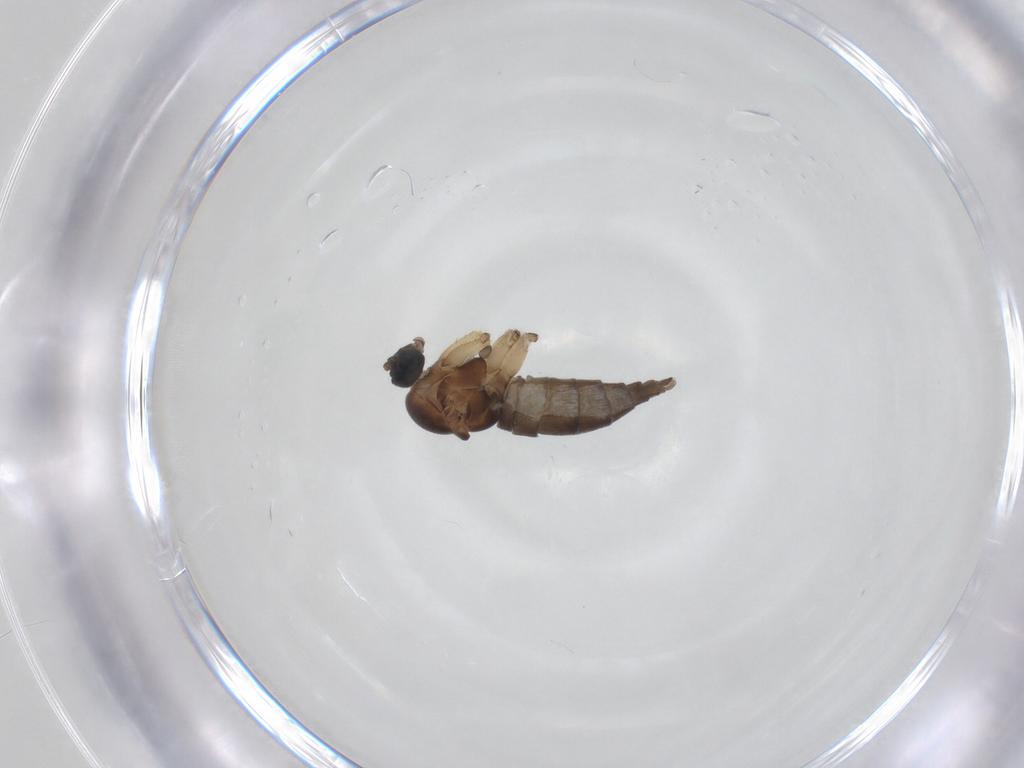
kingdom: Animalia
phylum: Arthropoda
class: Insecta
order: Diptera
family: Sciaridae
